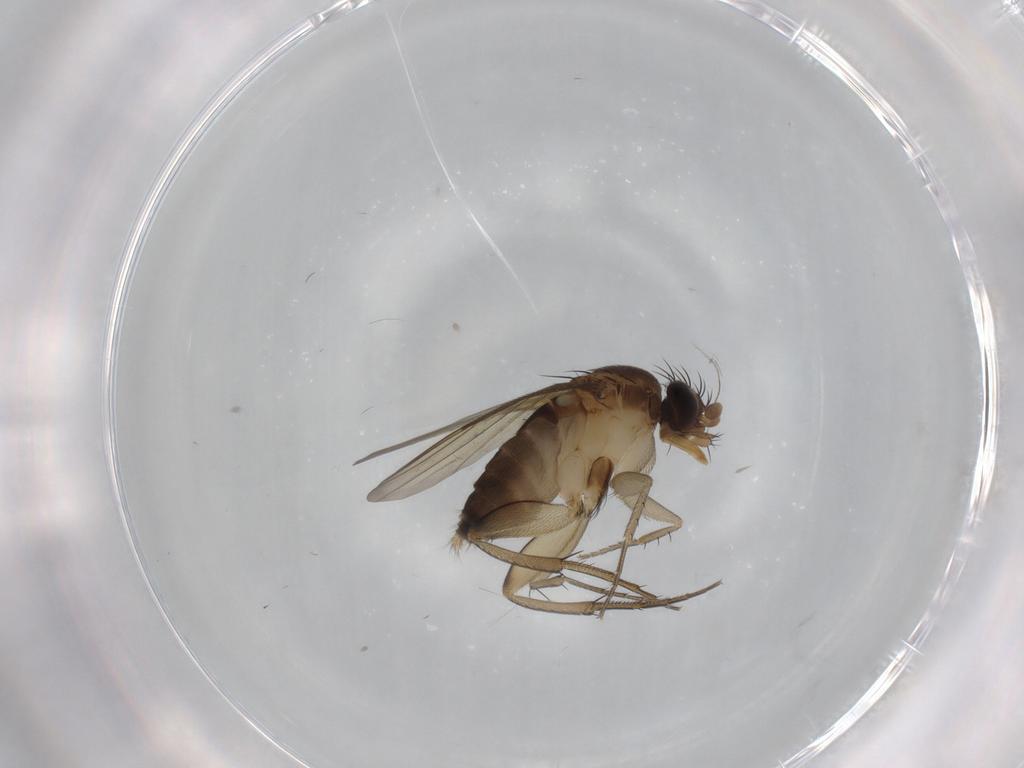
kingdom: Animalia
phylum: Arthropoda
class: Insecta
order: Diptera
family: Phoridae
